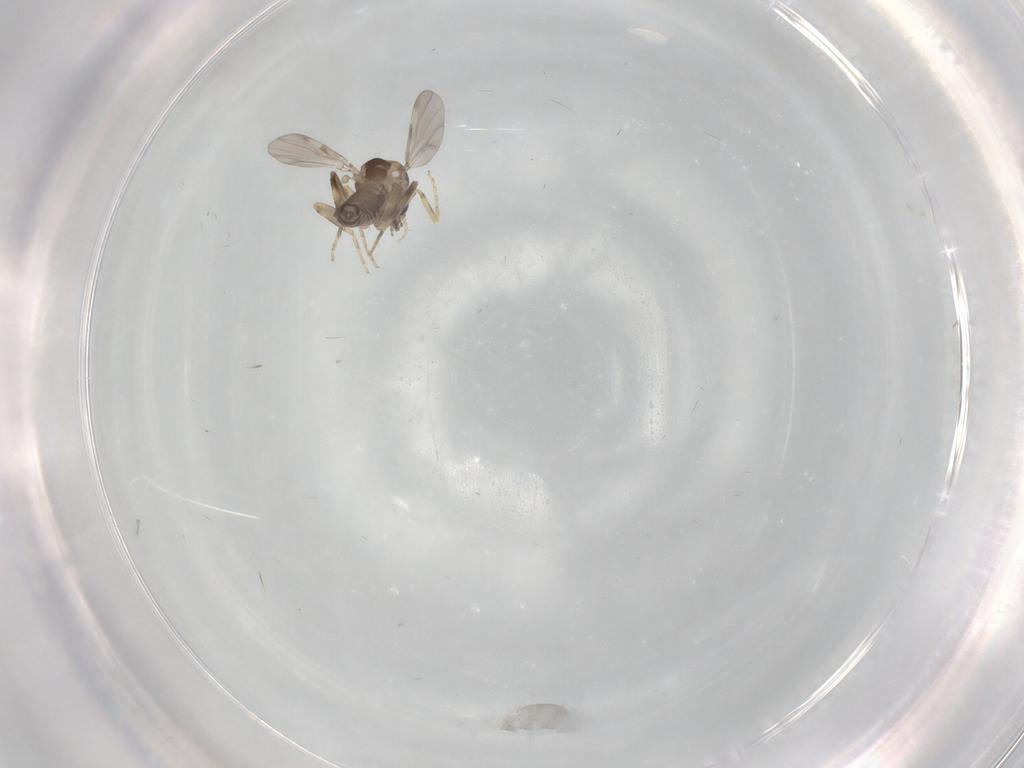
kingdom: Animalia
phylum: Arthropoda
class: Insecta
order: Diptera
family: Ceratopogonidae
